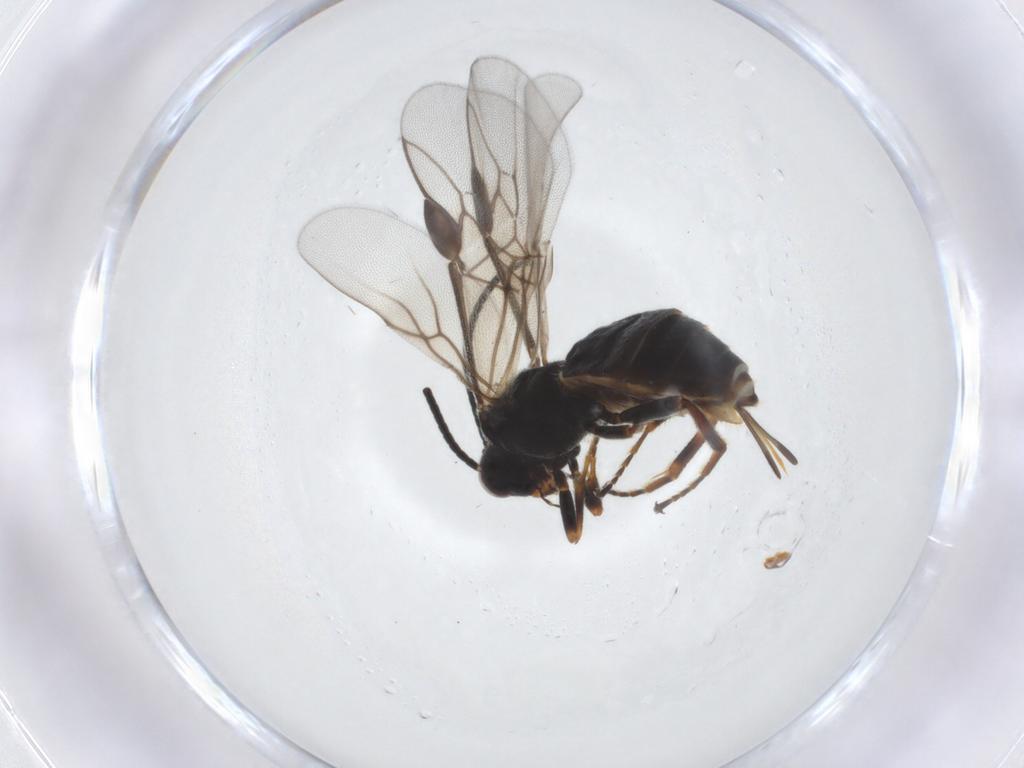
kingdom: Animalia
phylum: Arthropoda
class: Insecta
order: Hymenoptera
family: Braconidae
